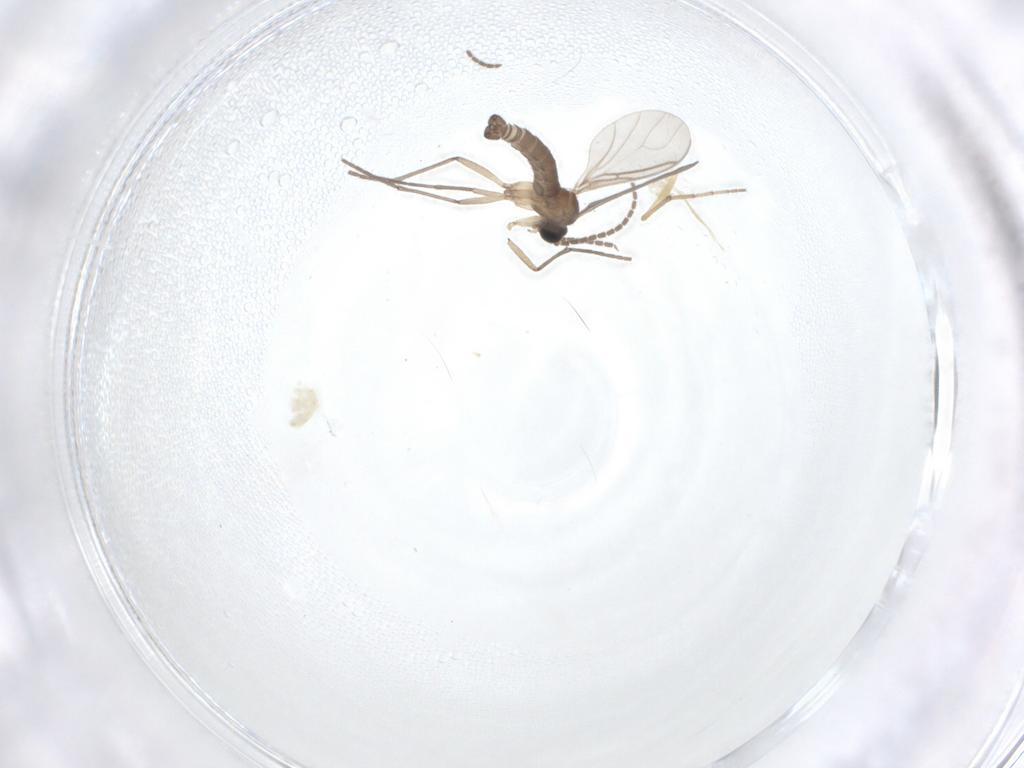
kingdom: Animalia
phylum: Arthropoda
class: Insecta
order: Diptera
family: Sciaridae
